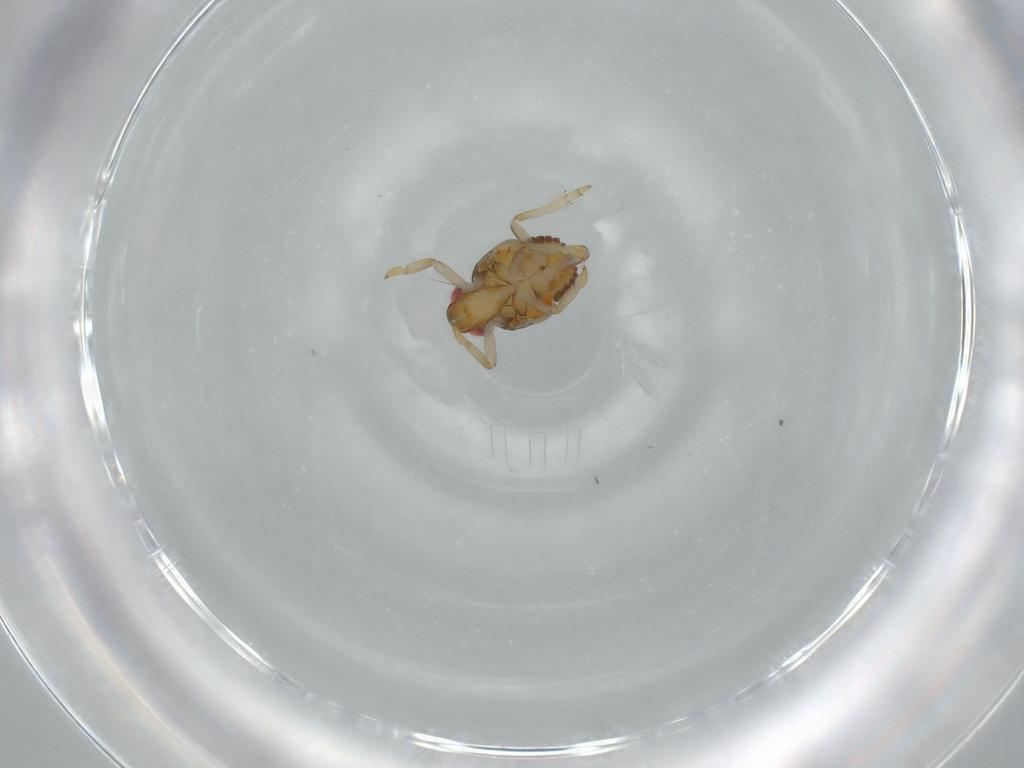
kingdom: Animalia
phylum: Arthropoda
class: Insecta
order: Hemiptera
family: Issidae
